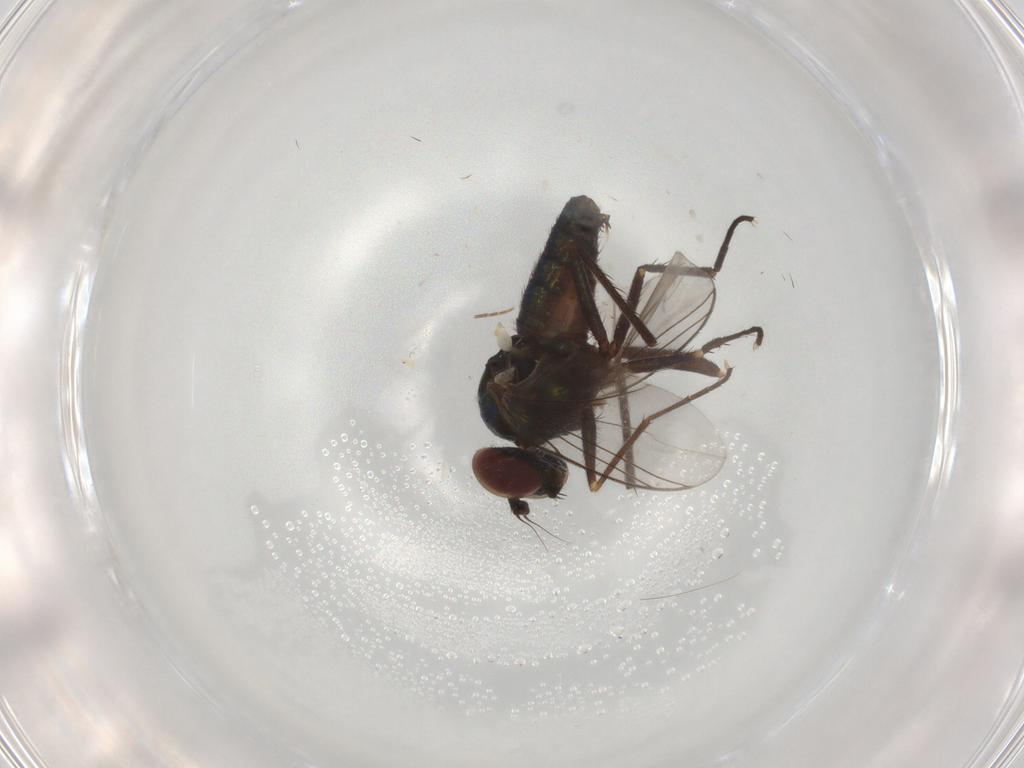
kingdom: Animalia
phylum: Arthropoda
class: Insecta
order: Diptera
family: Dolichopodidae
